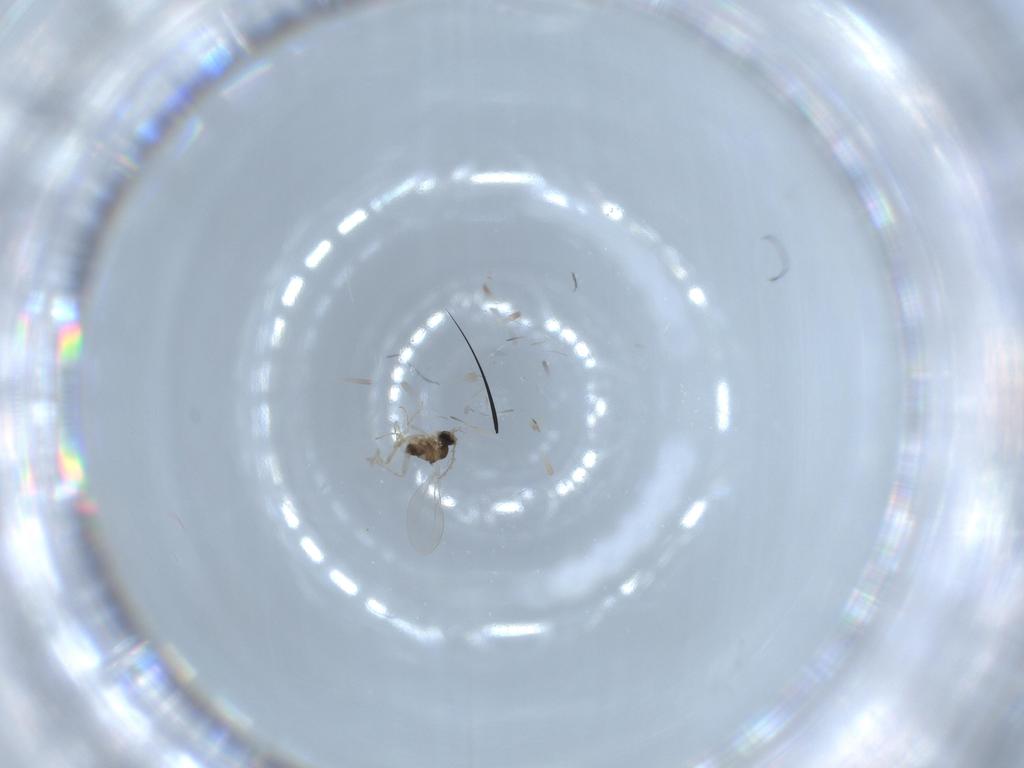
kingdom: Animalia
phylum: Arthropoda
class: Insecta
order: Diptera
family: Cecidomyiidae
